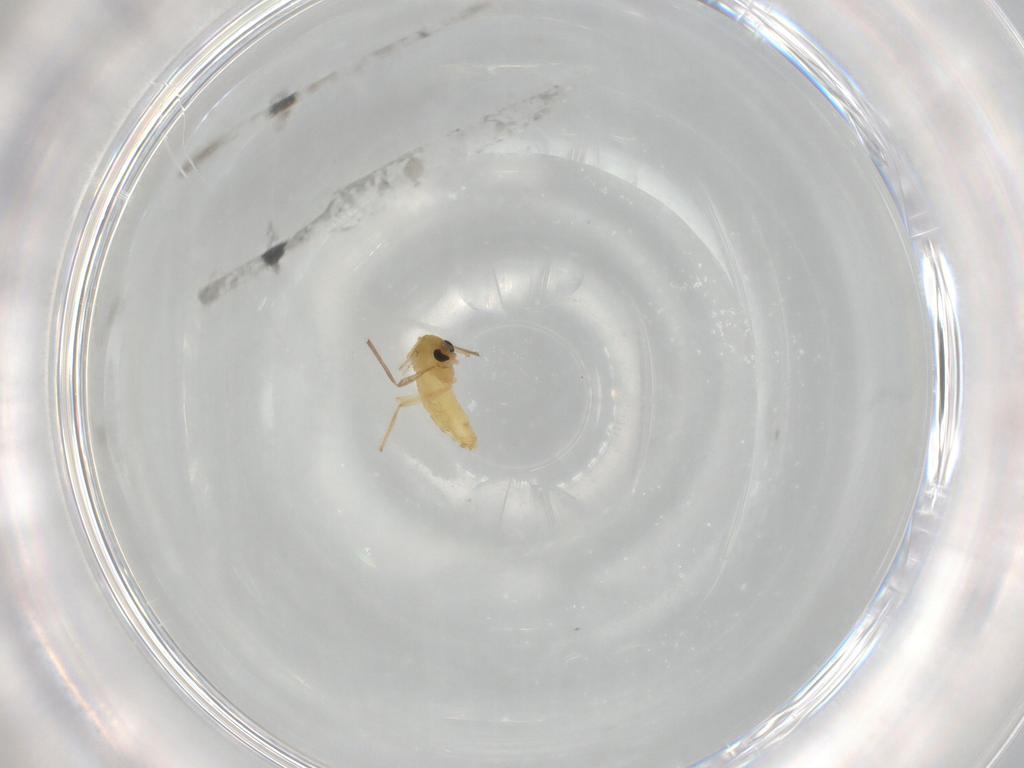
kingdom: Animalia
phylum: Arthropoda
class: Insecta
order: Diptera
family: Chironomidae
